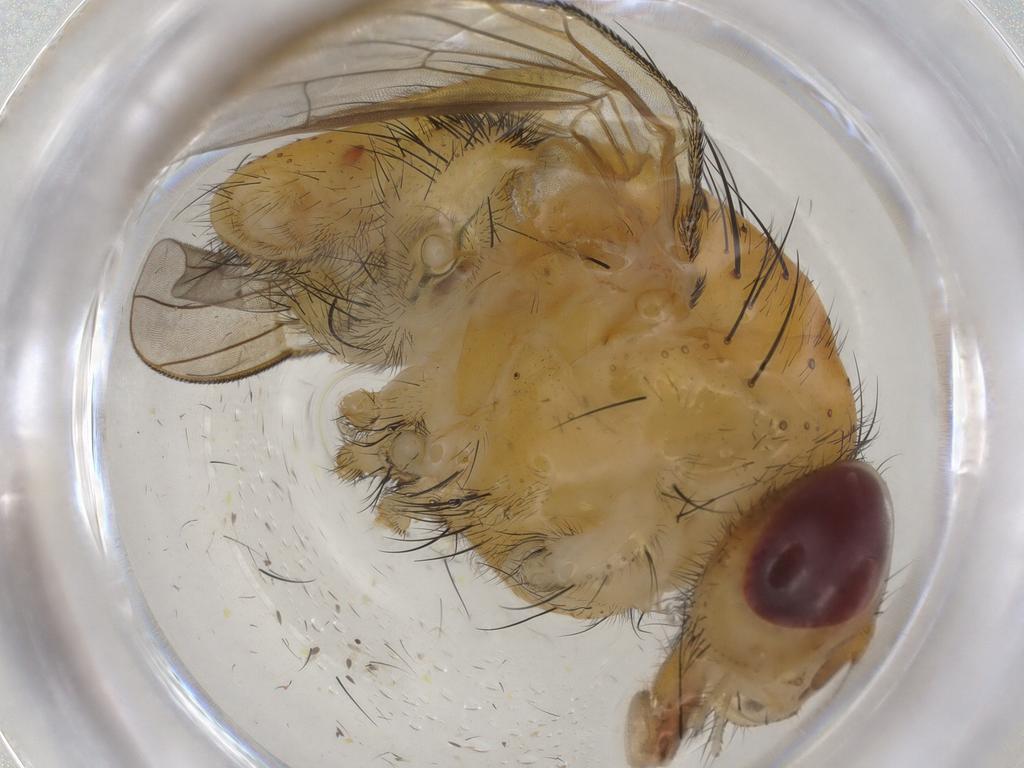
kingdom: Animalia
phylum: Arthropoda
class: Insecta
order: Diptera
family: Muscidae
